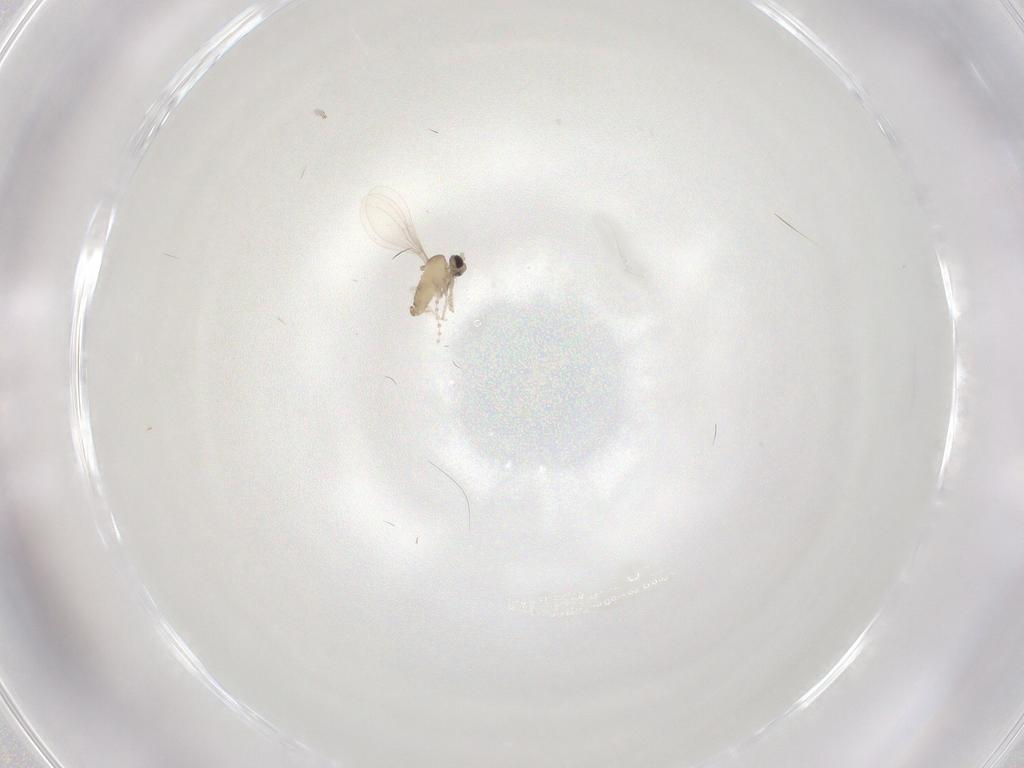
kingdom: Animalia
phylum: Arthropoda
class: Insecta
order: Diptera
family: Cecidomyiidae
